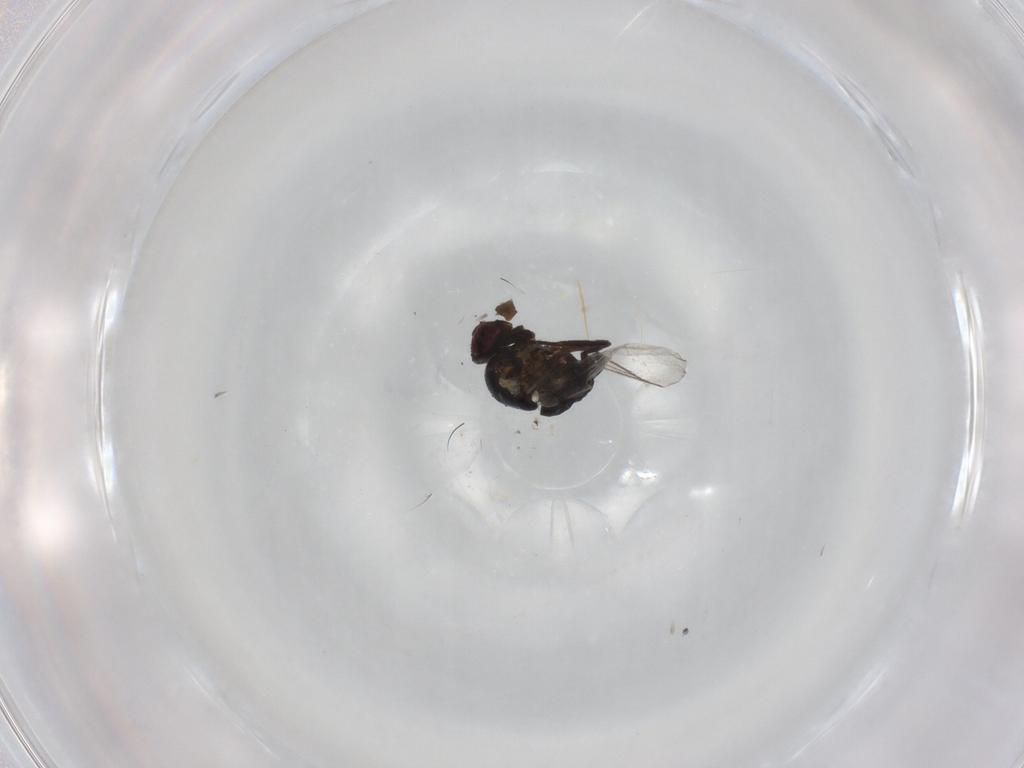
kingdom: Animalia
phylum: Arthropoda
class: Insecta
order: Diptera
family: Agromyzidae
